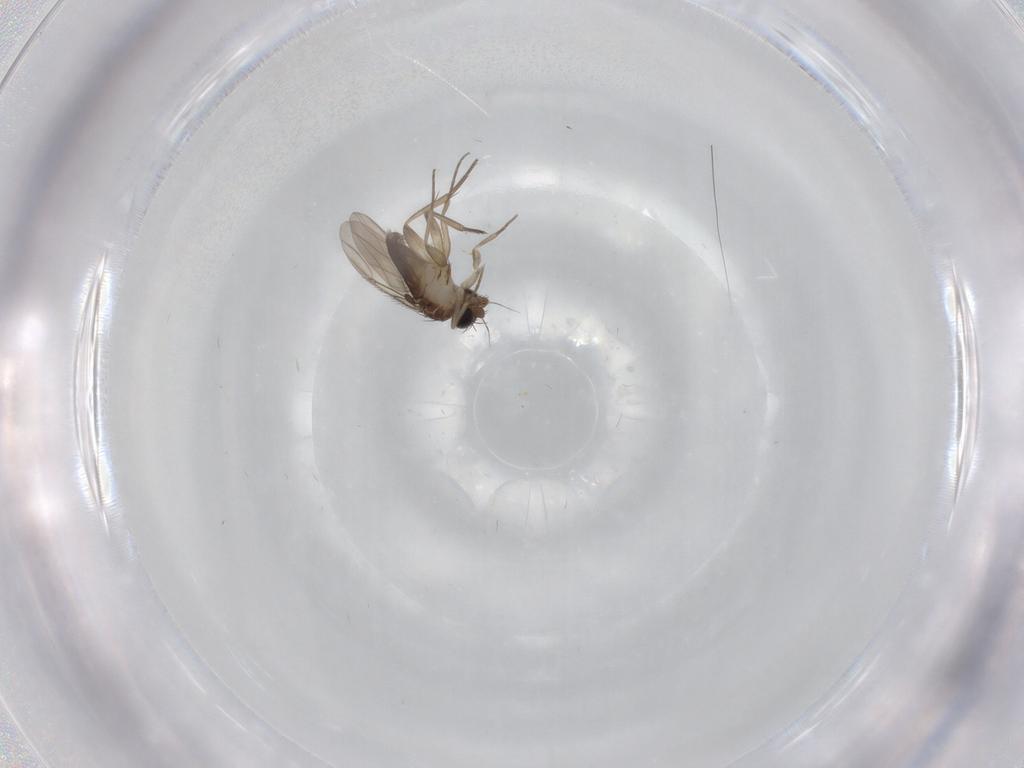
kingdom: Animalia
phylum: Arthropoda
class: Insecta
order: Diptera
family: Phoridae
